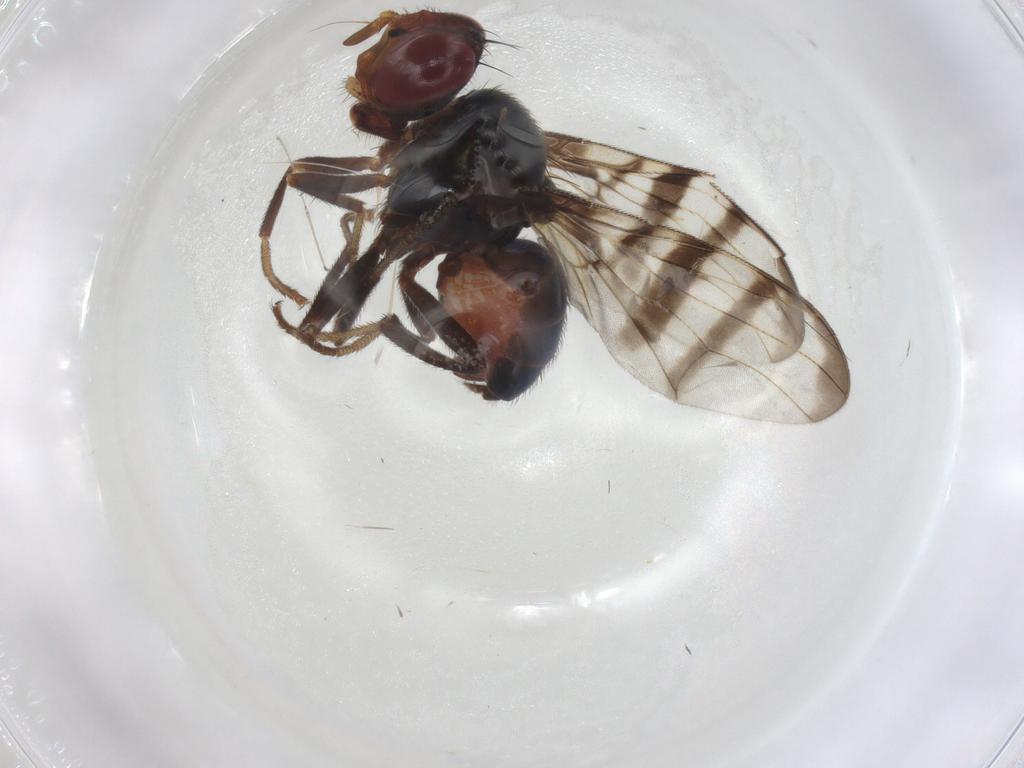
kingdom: Animalia
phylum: Arthropoda
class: Insecta
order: Diptera
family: Platystomatidae
